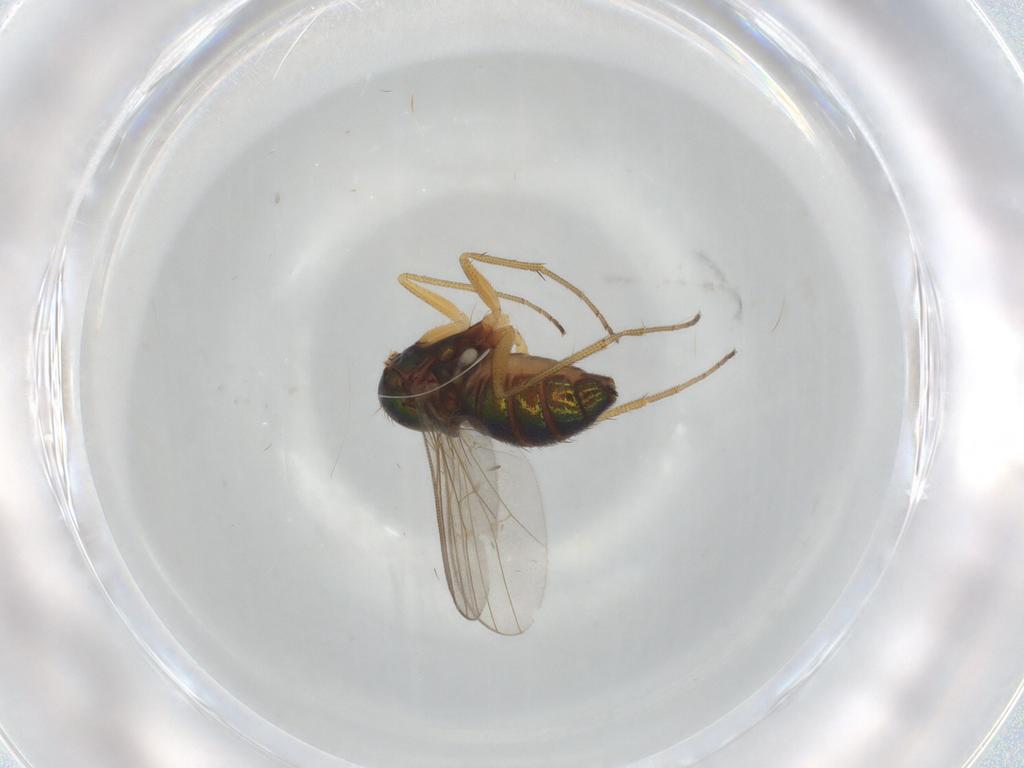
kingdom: Animalia
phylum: Arthropoda
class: Insecta
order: Diptera
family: Dolichopodidae
